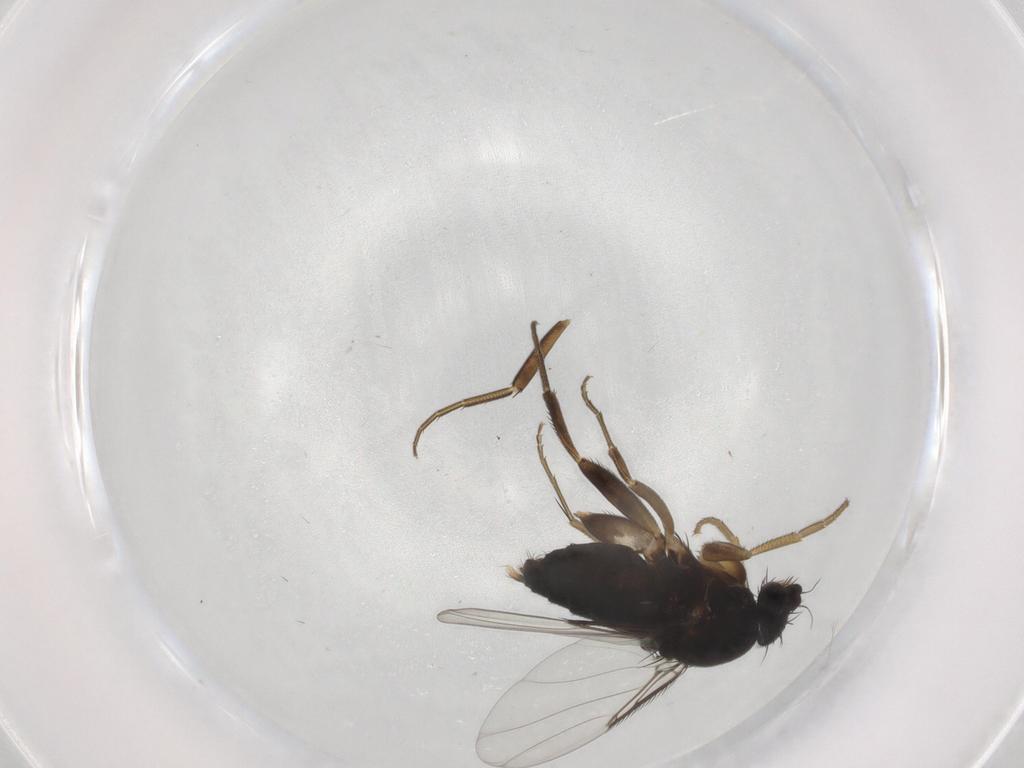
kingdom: Animalia
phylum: Arthropoda
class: Insecta
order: Diptera
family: Phoridae
